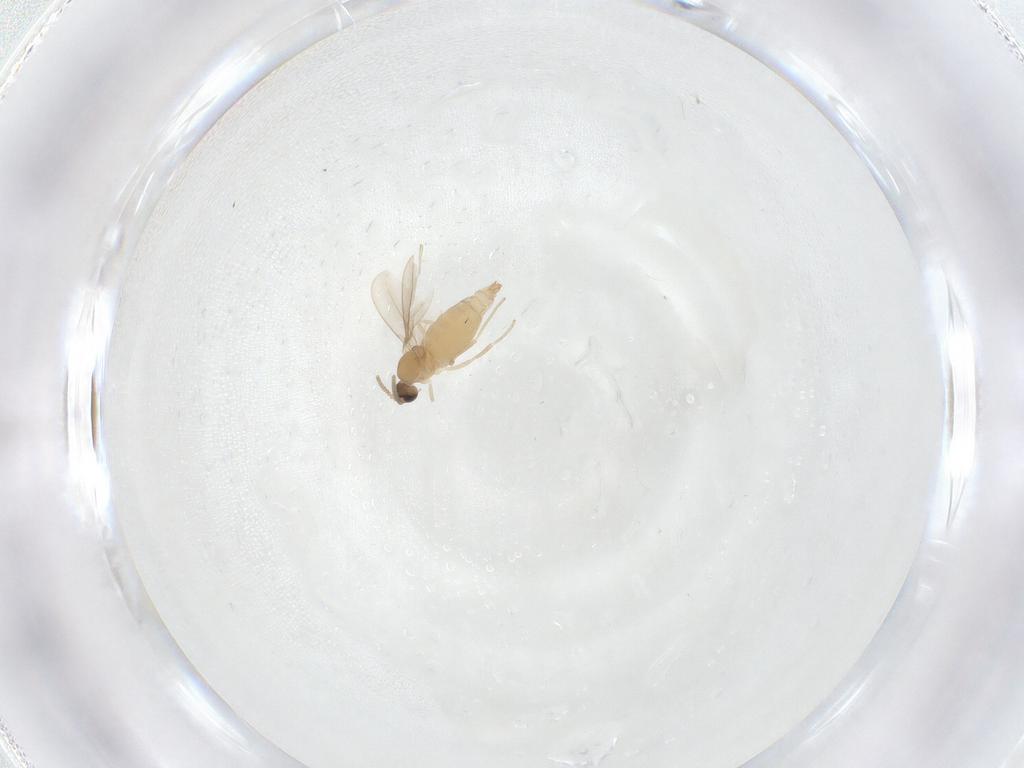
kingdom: Animalia
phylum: Arthropoda
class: Insecta
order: Diptera
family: Cecidomyiidae
